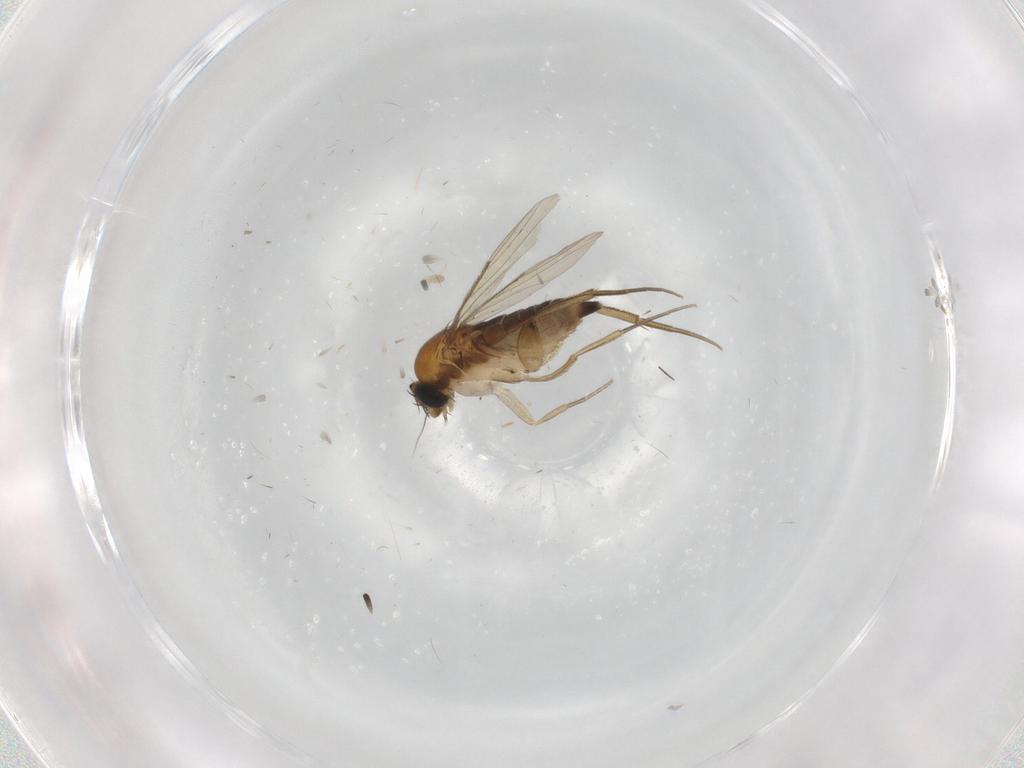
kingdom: Animalia
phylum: Arthropoda
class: Insecta
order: Diptera
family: Phoridae
